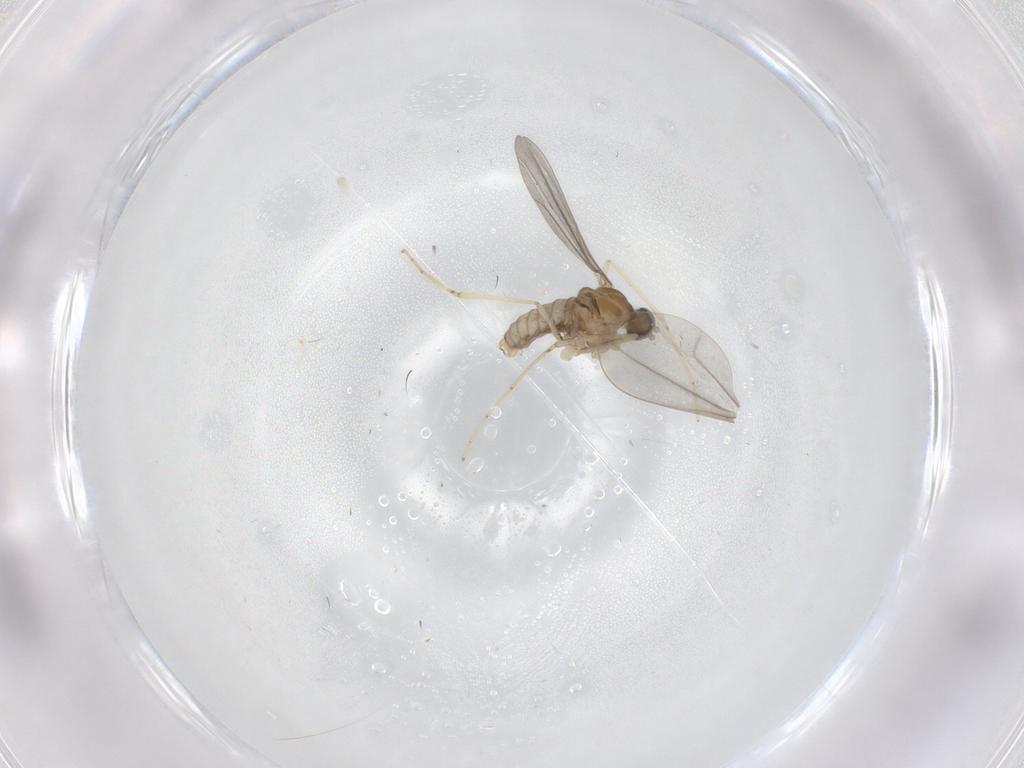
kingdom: Animalia
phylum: Arthropoda
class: Insecta
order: Diptera
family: Cecidomyiidae
